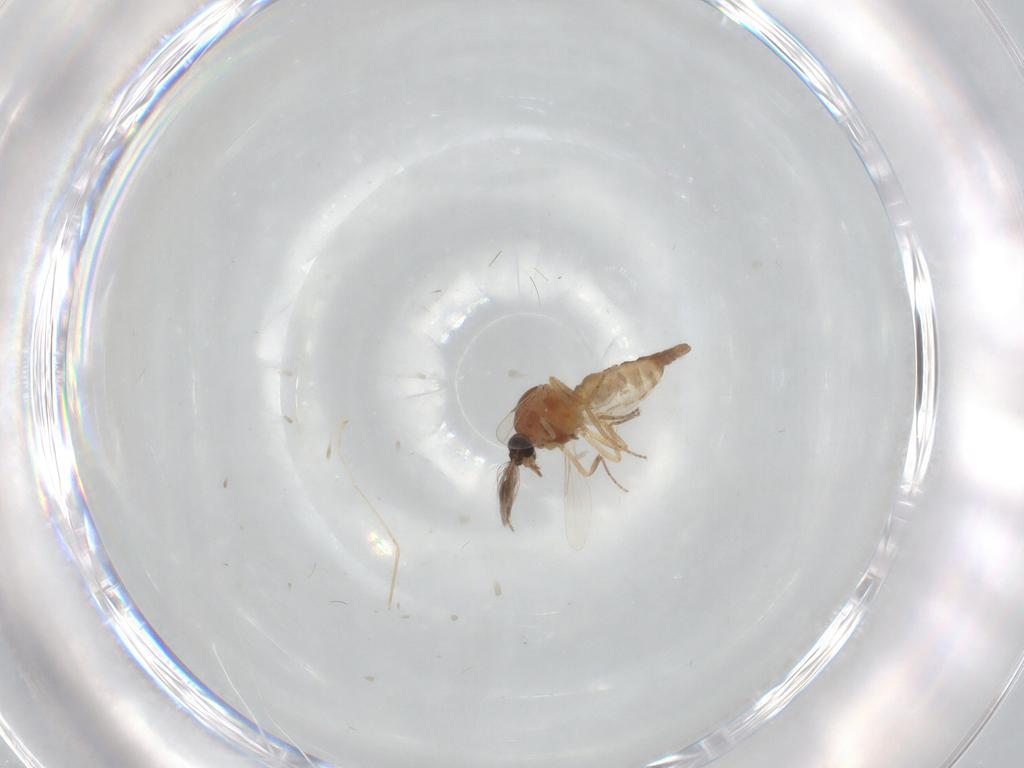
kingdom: Animalia
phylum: Arthropoda
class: Insecta
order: Diptera
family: Ceratopogonidae
